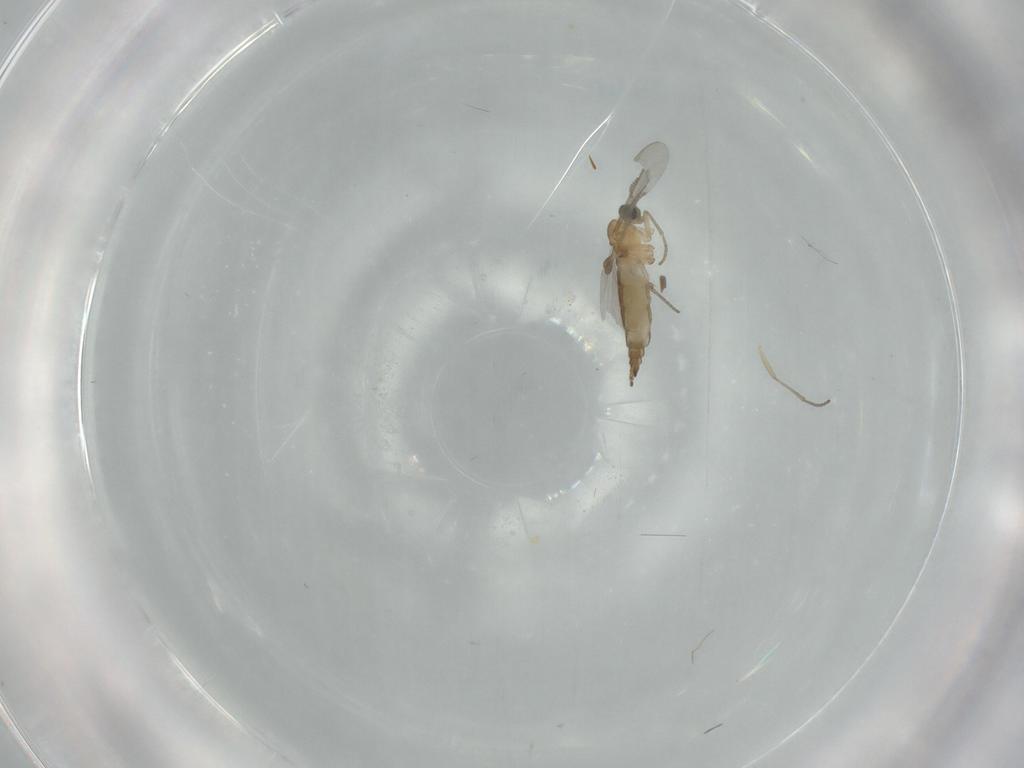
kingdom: Animalia
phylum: Arthropoda
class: Insecta
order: Diptera
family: Sciaridae
